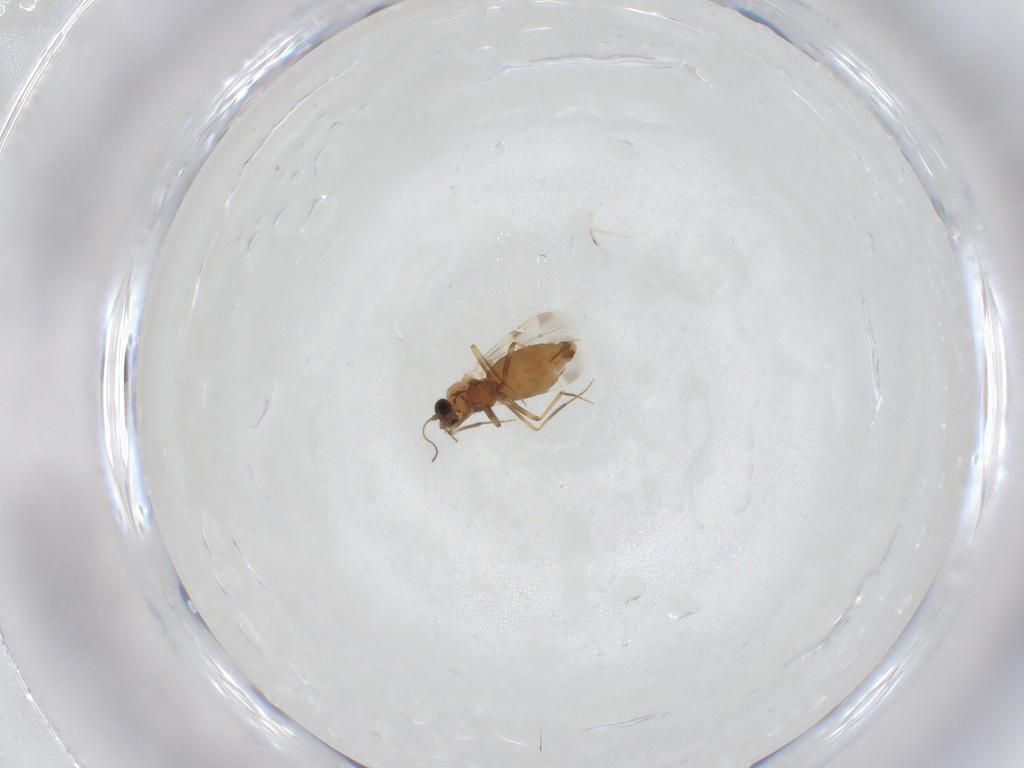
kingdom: Animalia
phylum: Arthropoda
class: Insecta
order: Diptera
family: Ceratopogonidae
